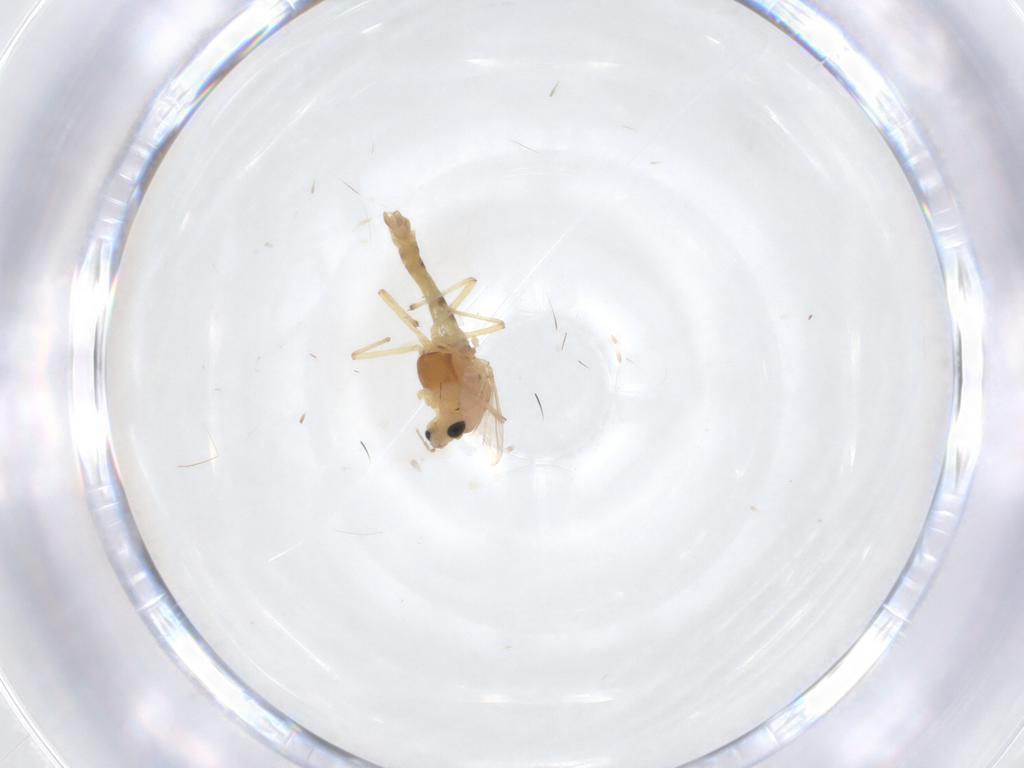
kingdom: Animalia
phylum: Arthropoda
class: Insecta
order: Diptera
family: Chironomidae
